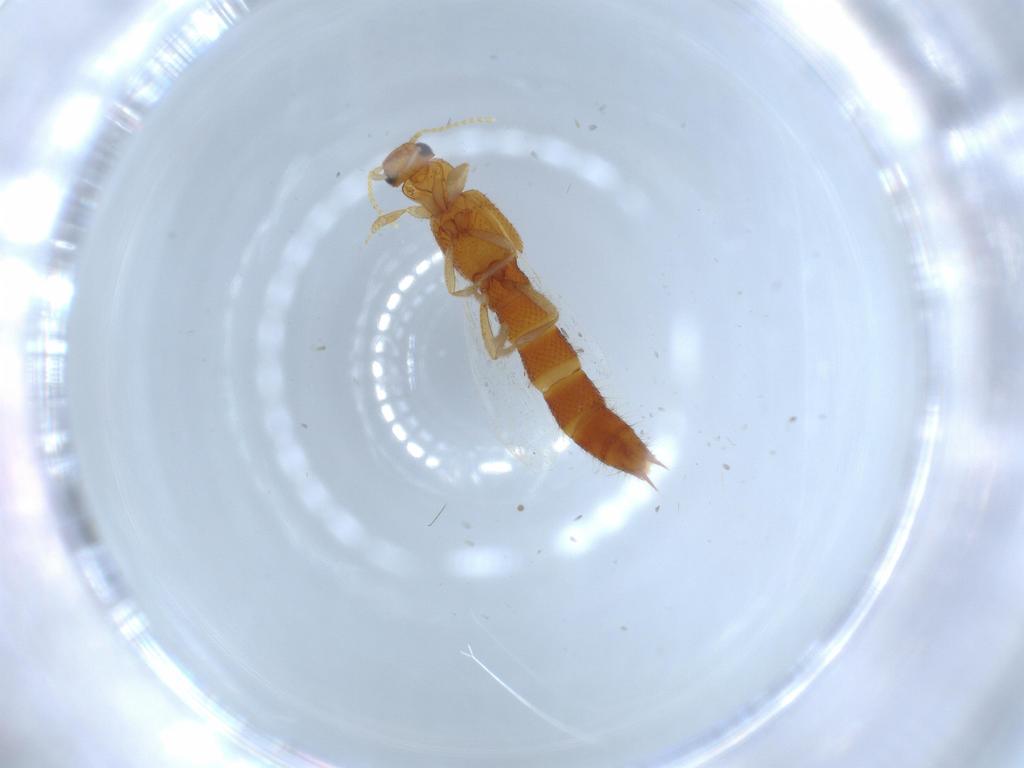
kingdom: Animalia
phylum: Arthropoda
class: Insecta
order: Coleoptera
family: Staphylinidae
